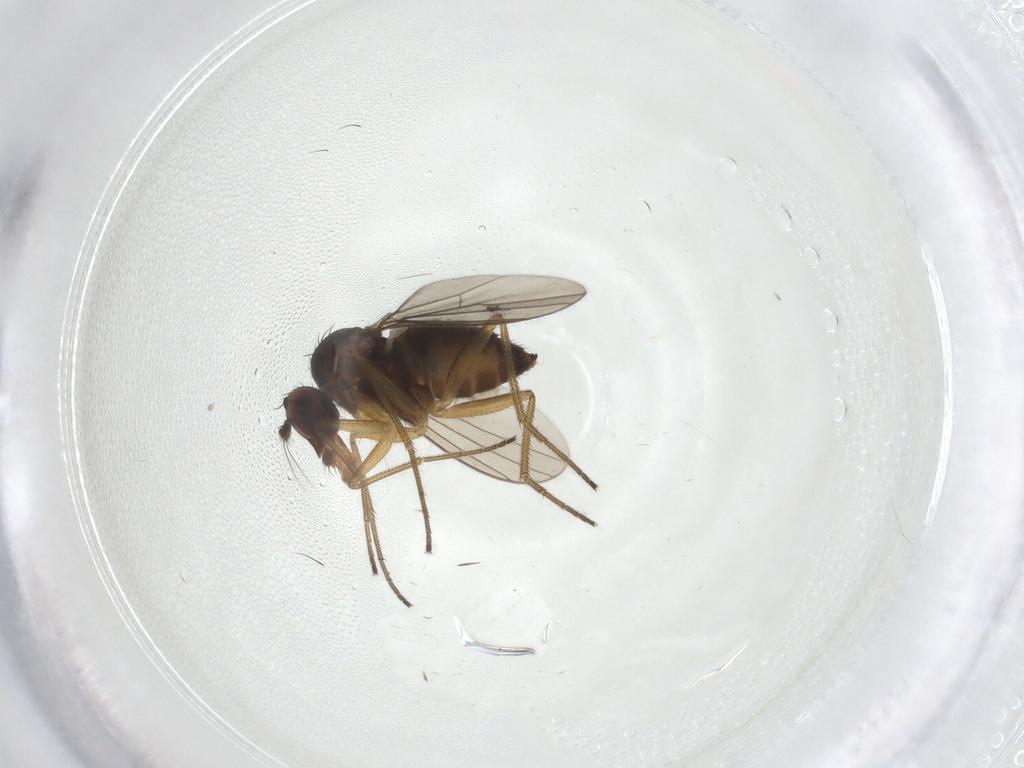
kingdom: Animalia
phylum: Arthropoda
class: Insecta
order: Diptera
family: Dolichopodidae
